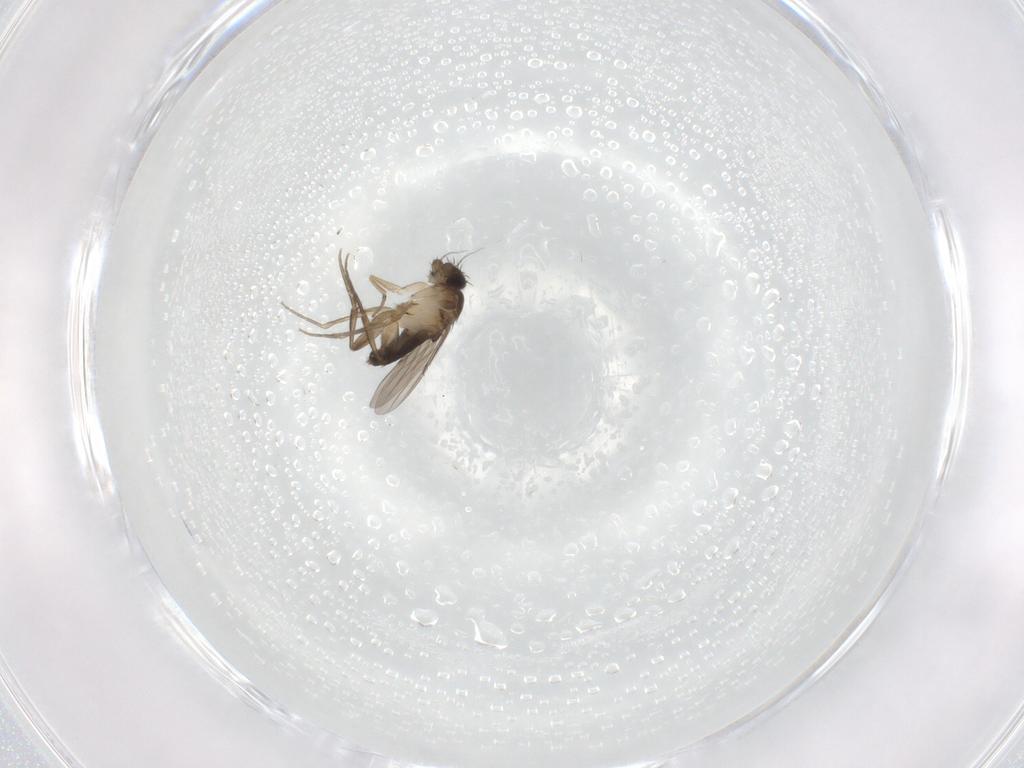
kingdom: Animalia
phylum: Arthropoda
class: Insecta
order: Diptera
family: Phoridae
